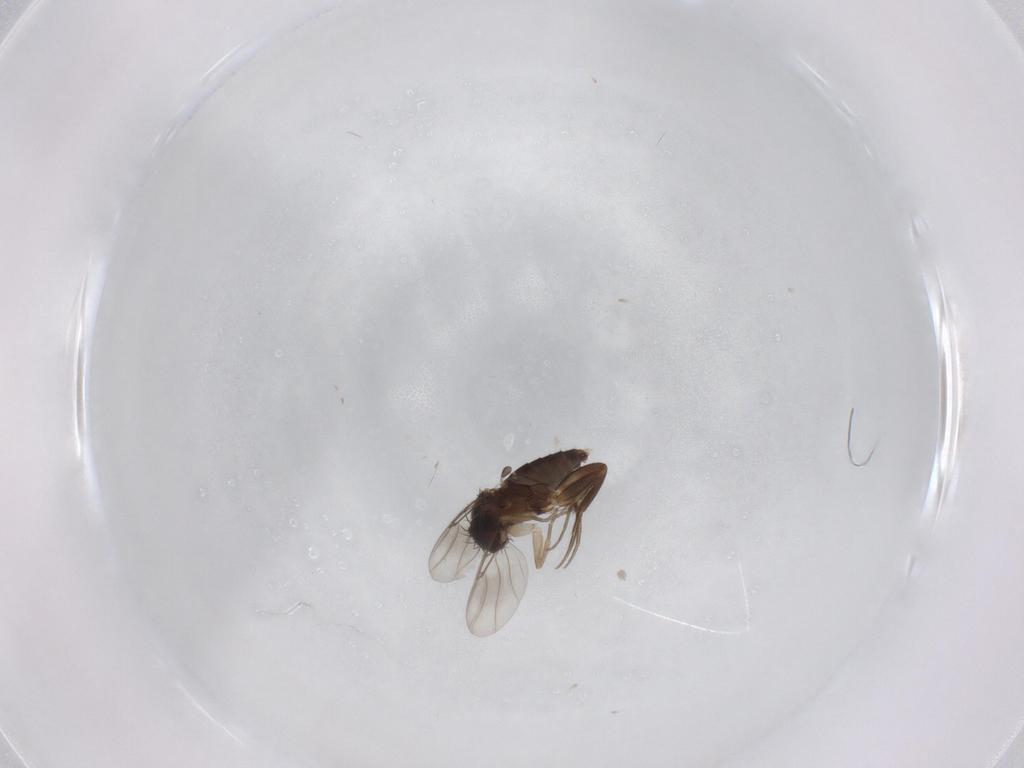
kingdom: Animalia
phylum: Arthropoda
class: Insecta
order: Diptera
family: Phoridae
